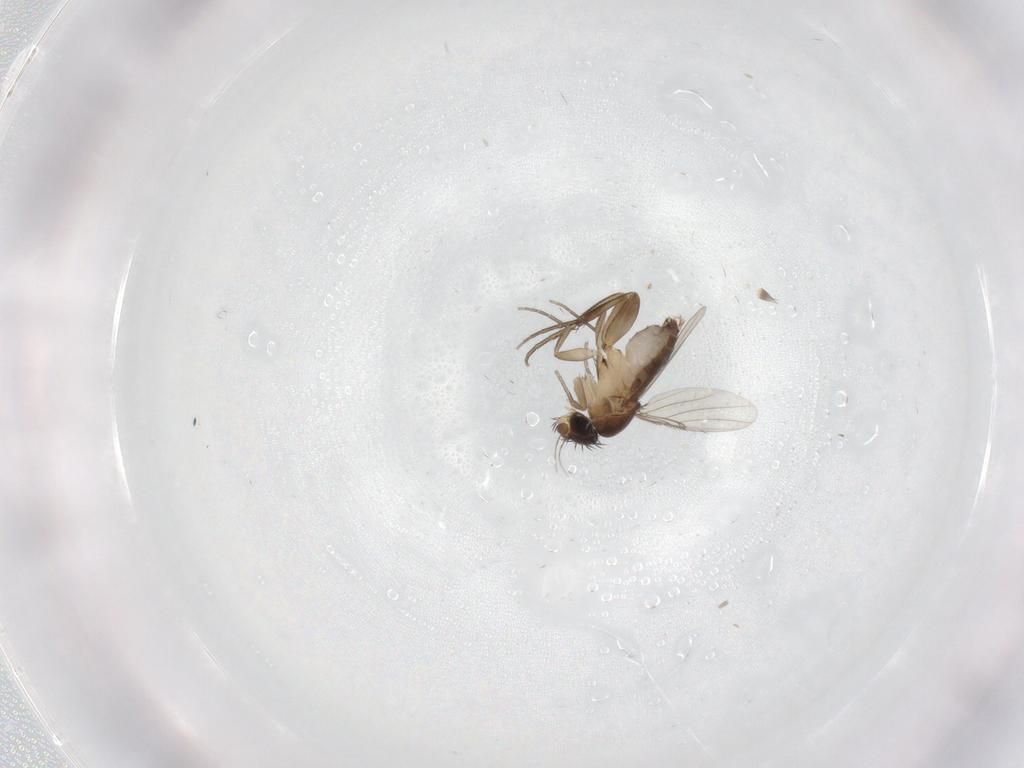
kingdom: Animalia
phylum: Arthropoda
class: Insecta
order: Diptera
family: Phoridae
